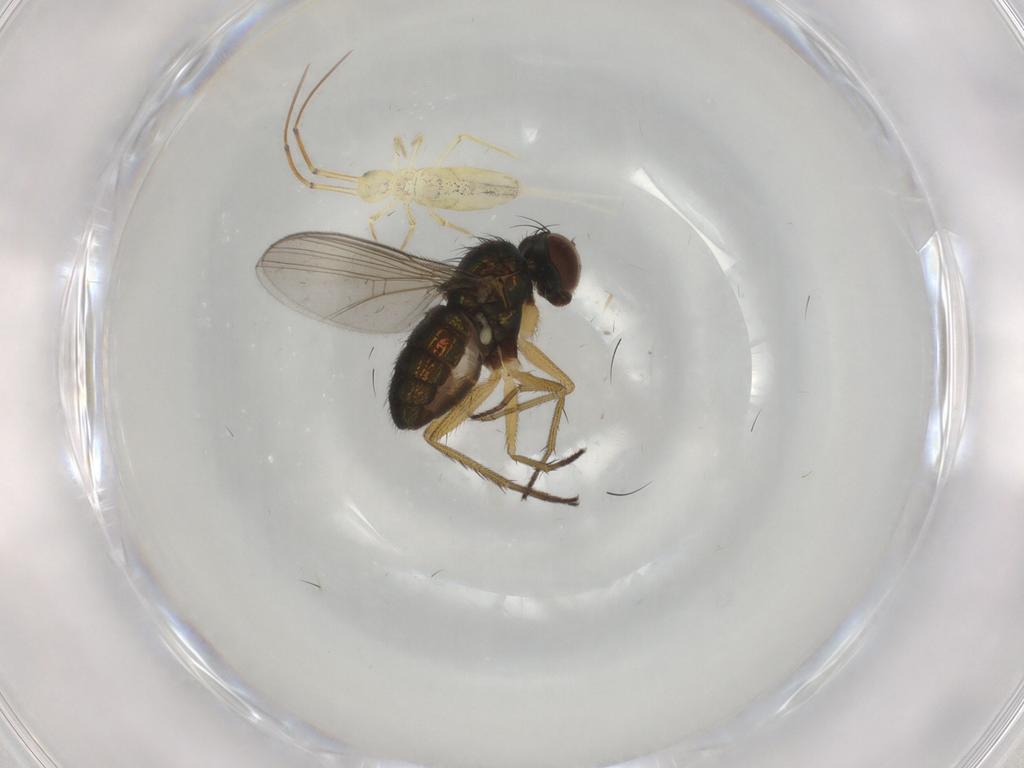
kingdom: Animalia
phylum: Arthropoda
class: Insecta
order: Diptera
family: Dolichopodidae
